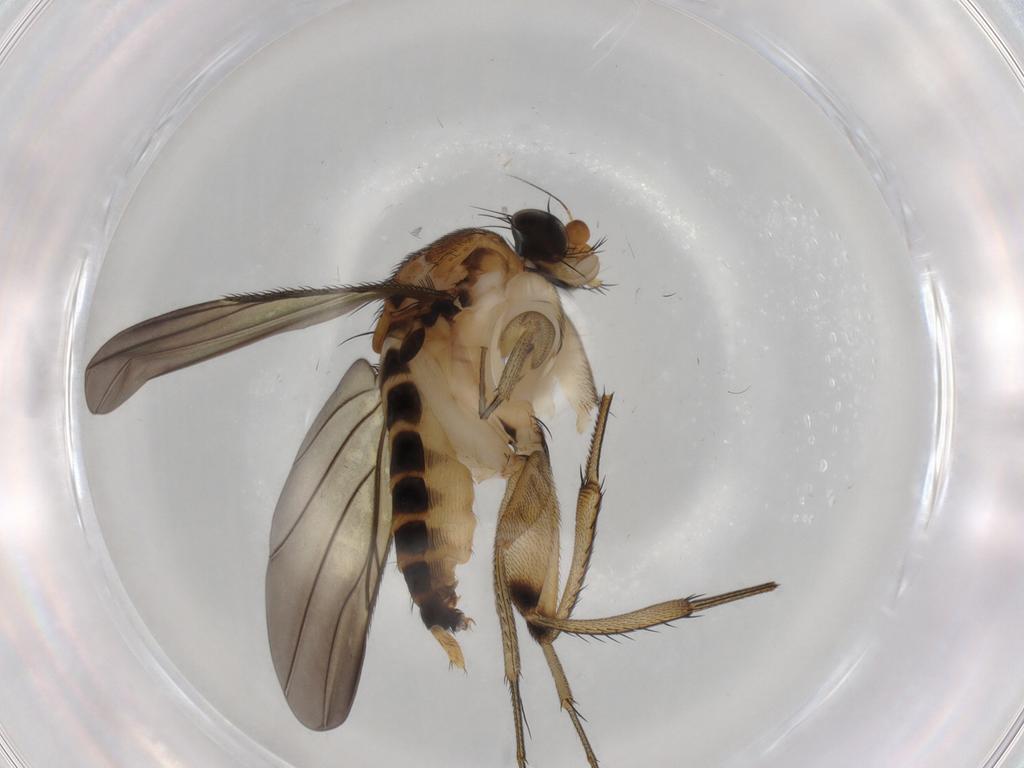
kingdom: Animalia
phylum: Arthropoda
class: Insecta
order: Diptera
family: Phoridae
